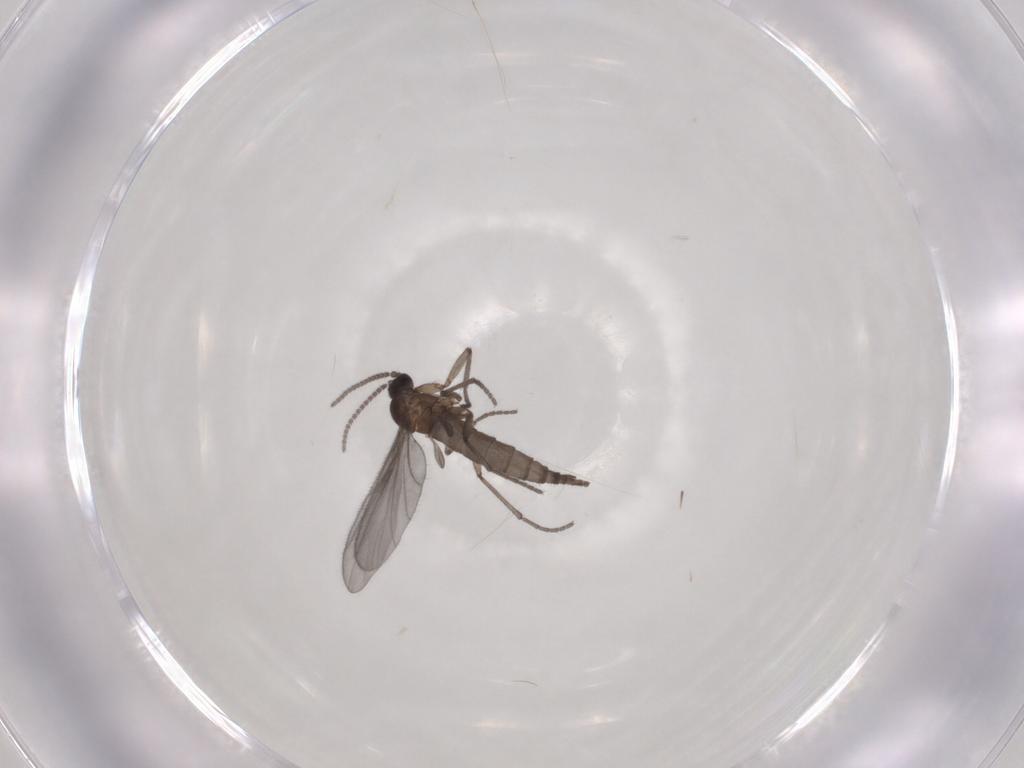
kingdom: Animalia
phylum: Arthropoda
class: Insecta
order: Diptera
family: Sciaridae
